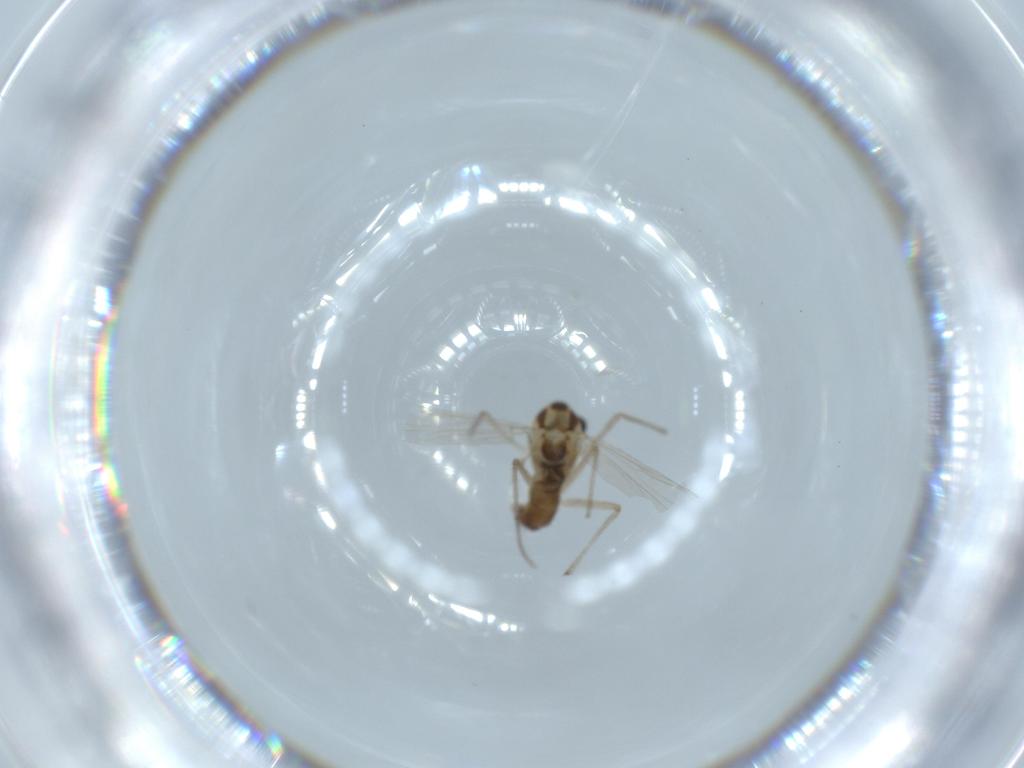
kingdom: Animalia
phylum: Arthropoda
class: Insecta
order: Diptera
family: Chironomidae
